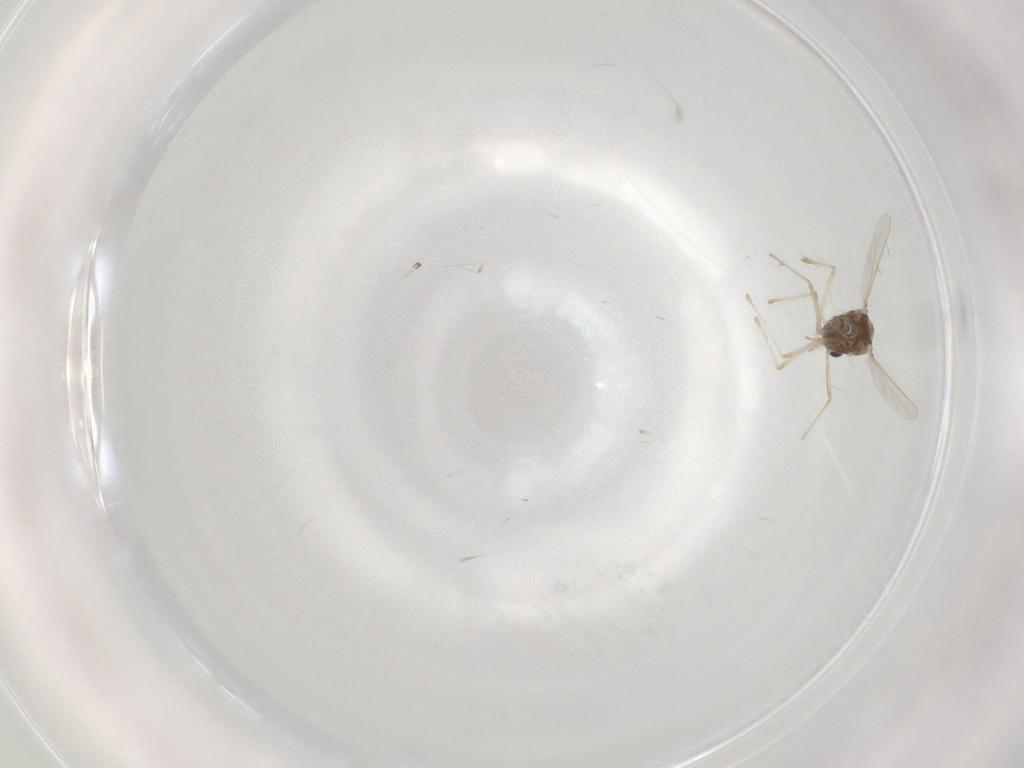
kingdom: Animalia
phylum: Arthropoda
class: Insecta
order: Diptera
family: Chironomidae
